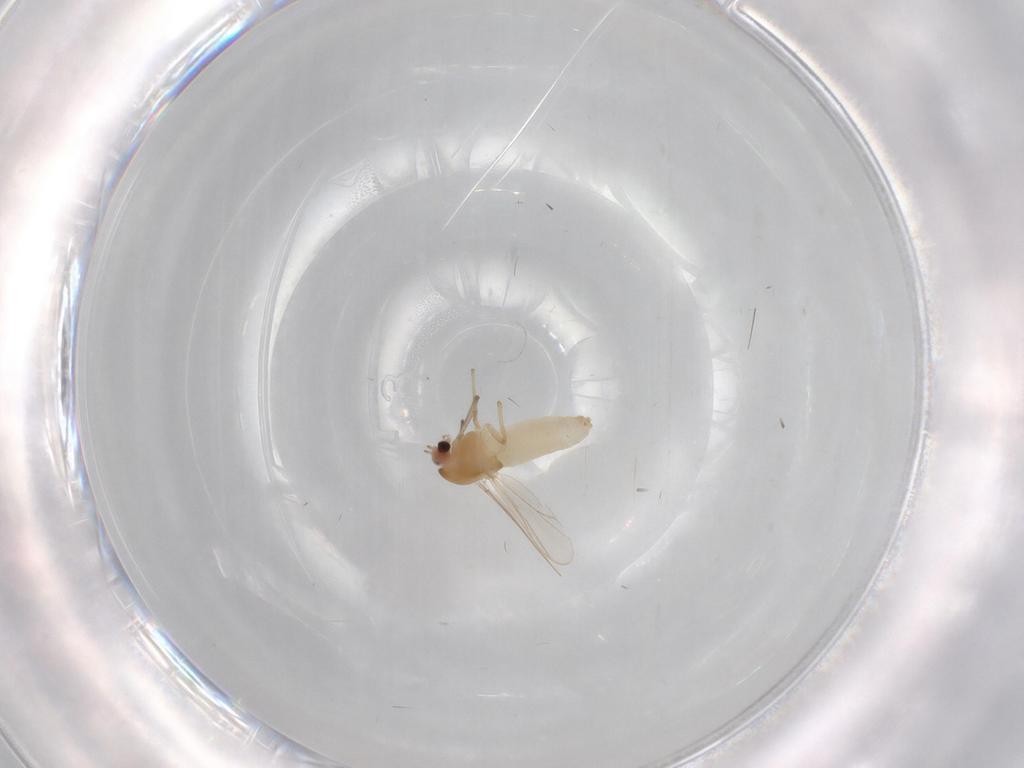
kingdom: Animalia
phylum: Arthropoda
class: Insecta
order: Diptera
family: Chironomidae
